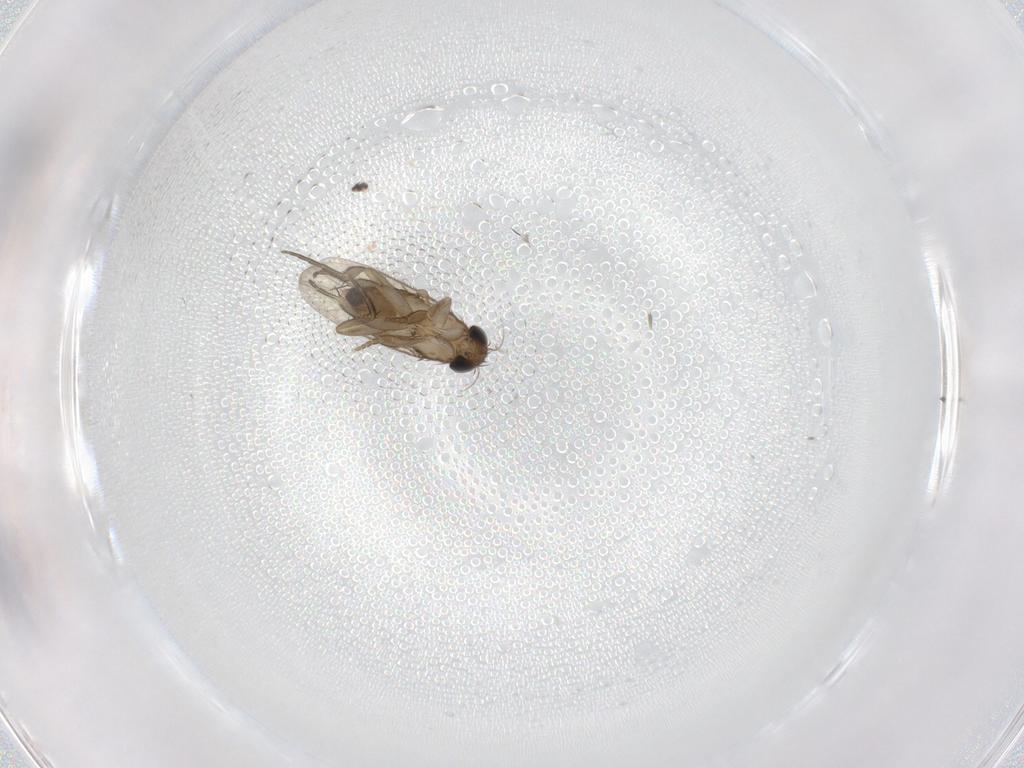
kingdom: Animalia
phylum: Arthropoda
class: Insecta
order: Diptera
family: Phoridae
